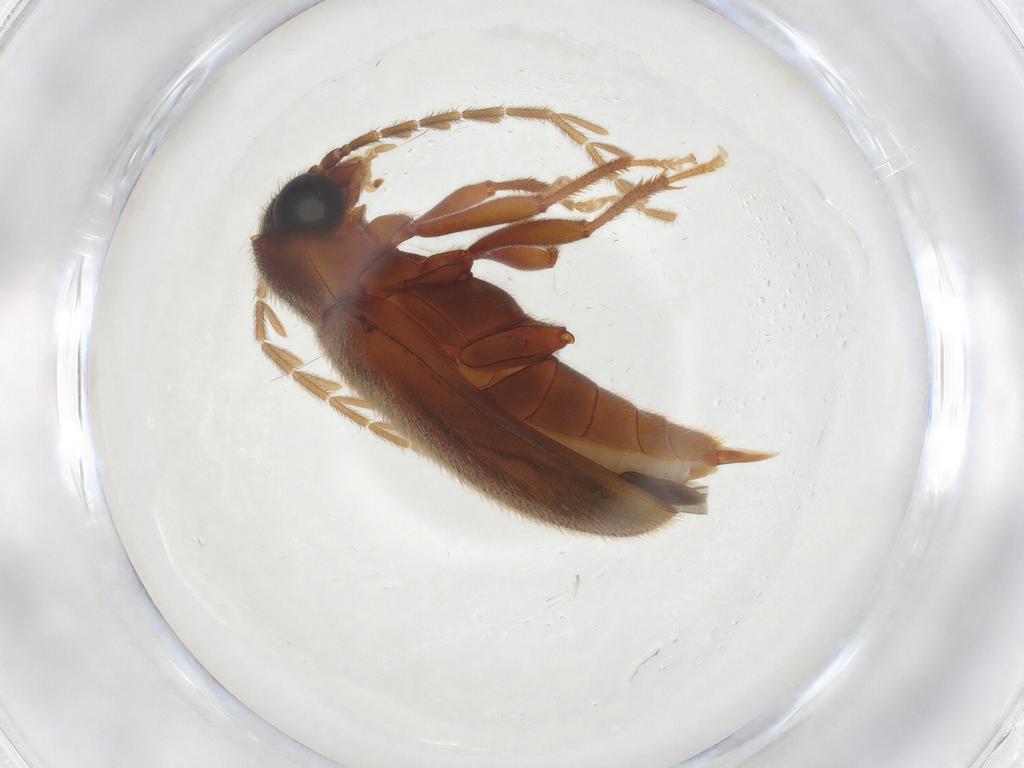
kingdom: Animalia
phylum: Arthropoda
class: Insecta
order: Coleoptera
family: Ptilodactylidae
